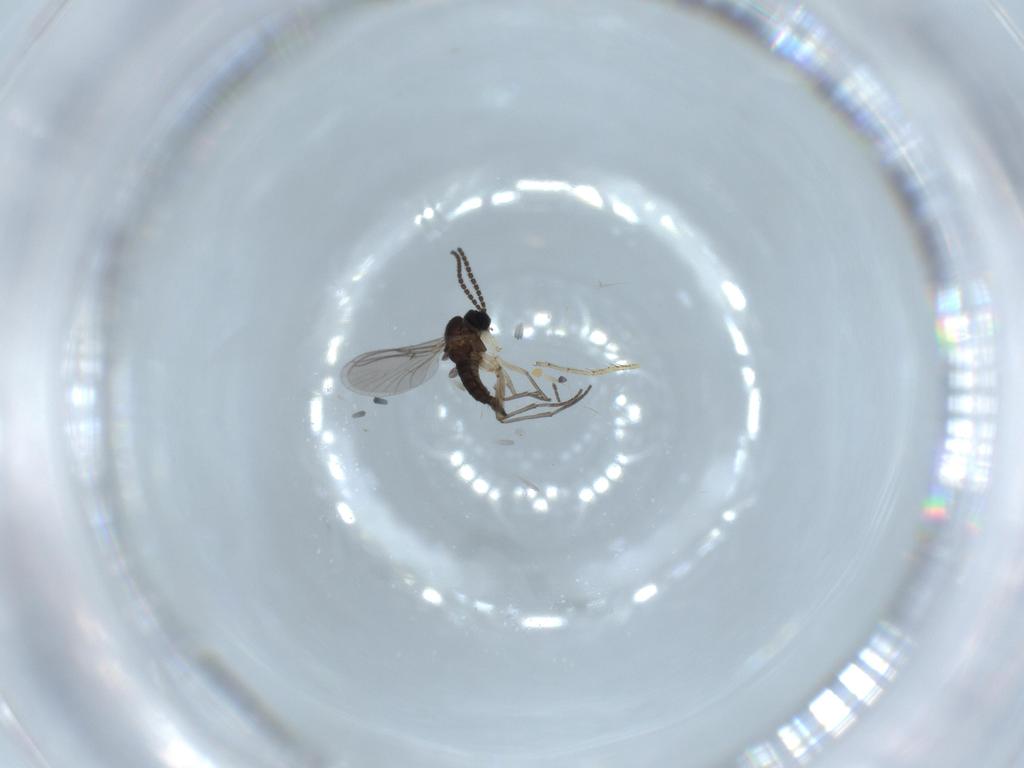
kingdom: Animalia
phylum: Arthropoda
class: Insecta
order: Diptera
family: Sciaridae
